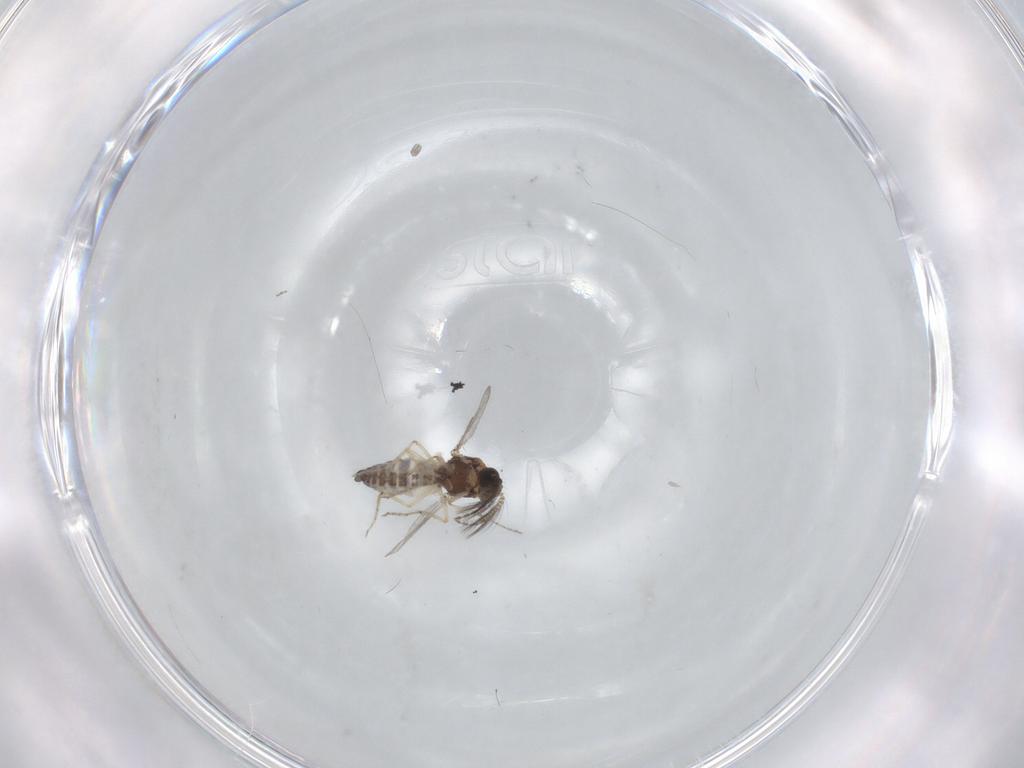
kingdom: Animalia
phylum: Arthropoda
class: Insecta
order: Diptera
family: Ceratopogonidae
